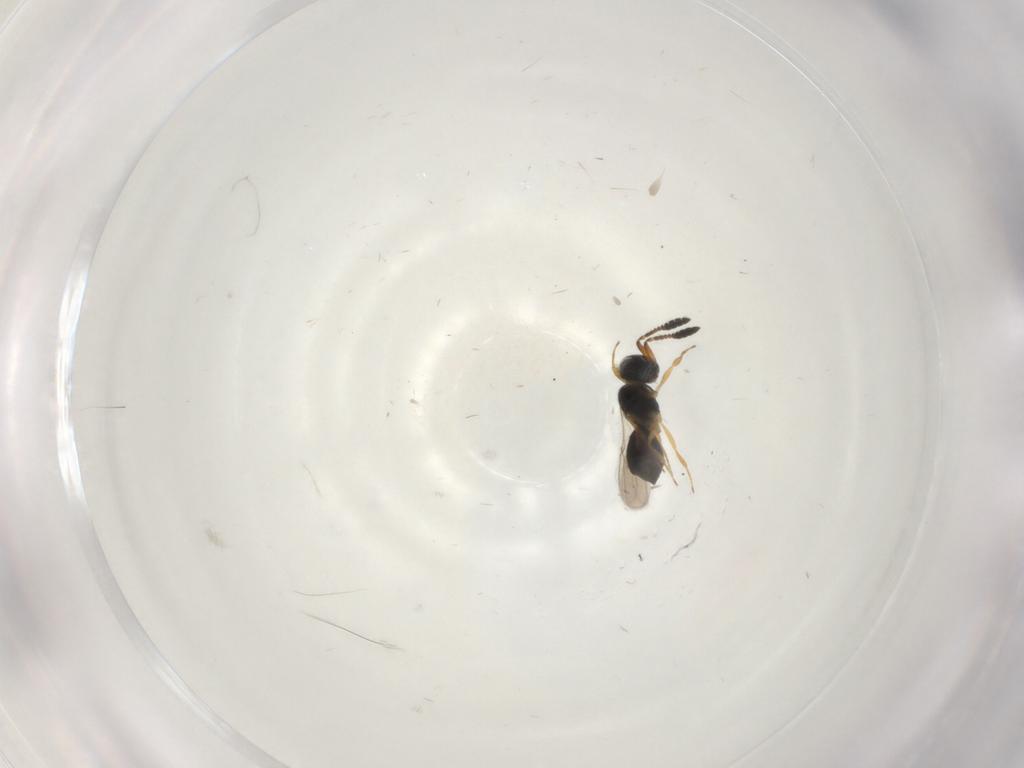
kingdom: Animalia
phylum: Arthropoda
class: Insecta
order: Hymenoptera
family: Scelionidae
